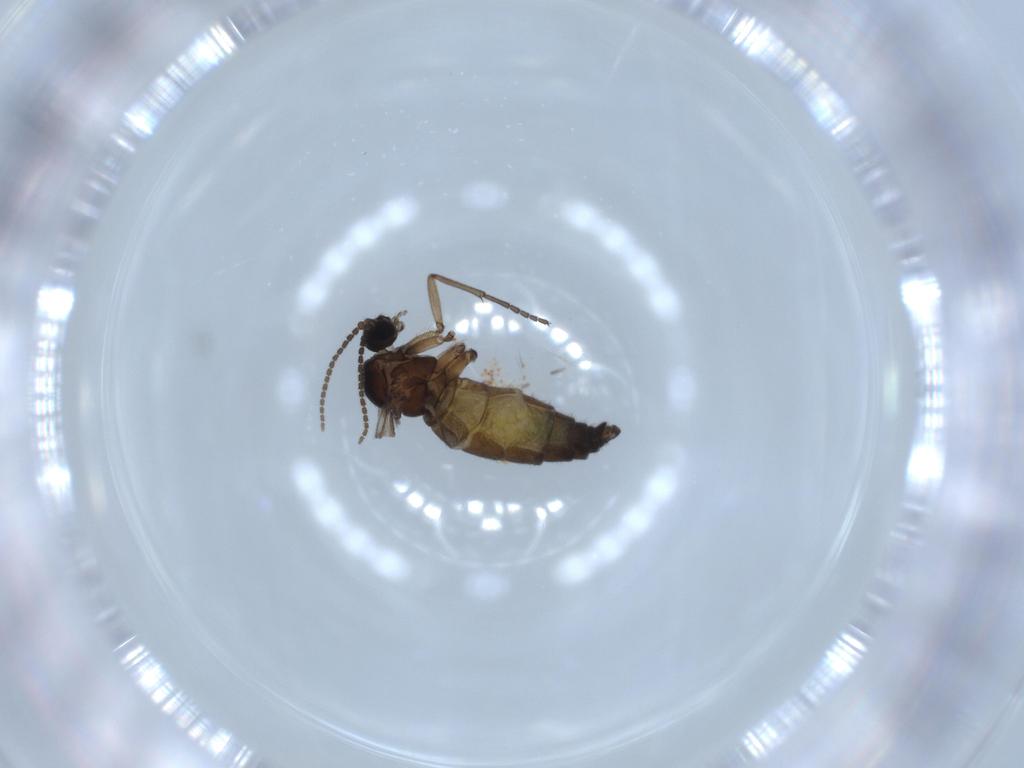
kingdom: Animalia
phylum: Arthropoda
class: Insecta
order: Diptera
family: Sciaridae
